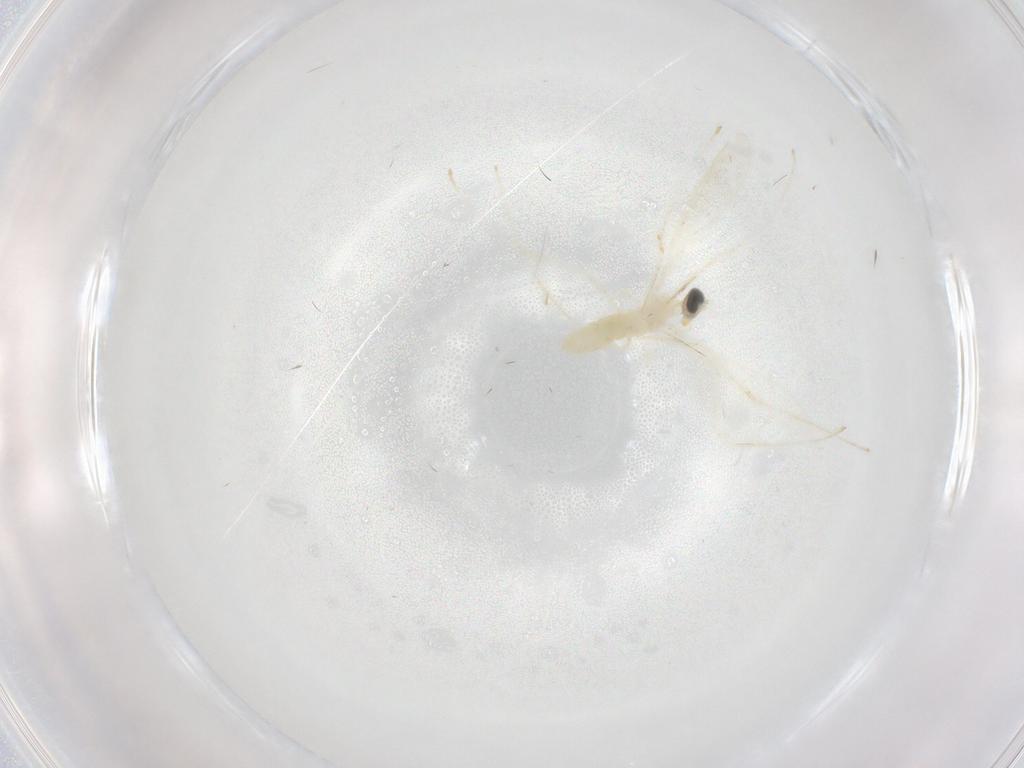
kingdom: Animalia
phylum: Arthropoda
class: Insecta
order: Diptera
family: Cecidomyiidae
